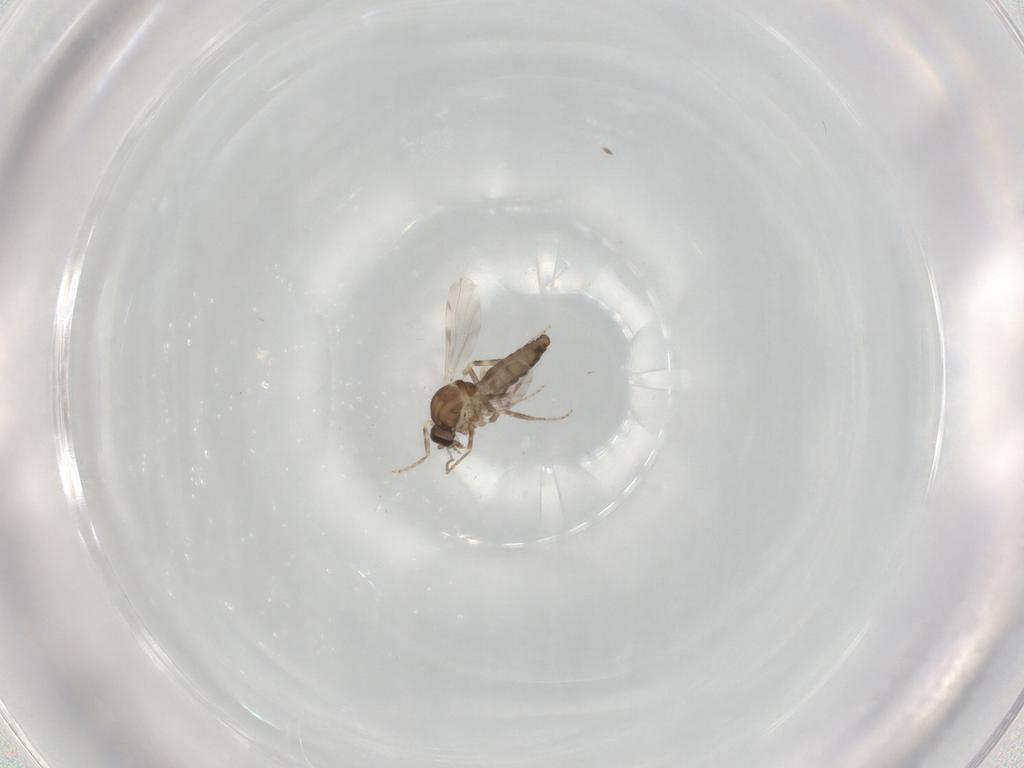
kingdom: Animalia
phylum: Arthropoda
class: Insecta
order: Diptera
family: Ceratopogonidae
